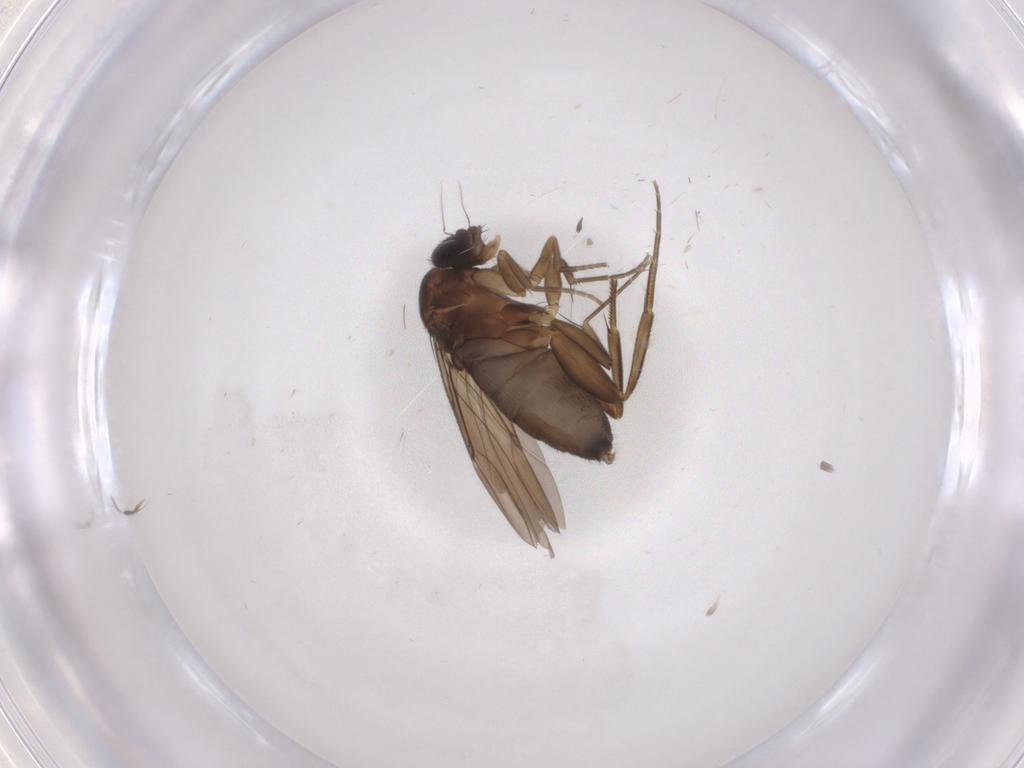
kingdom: Animalia
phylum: Arthropoda
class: Insecta
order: Diptera
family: Phoridae
